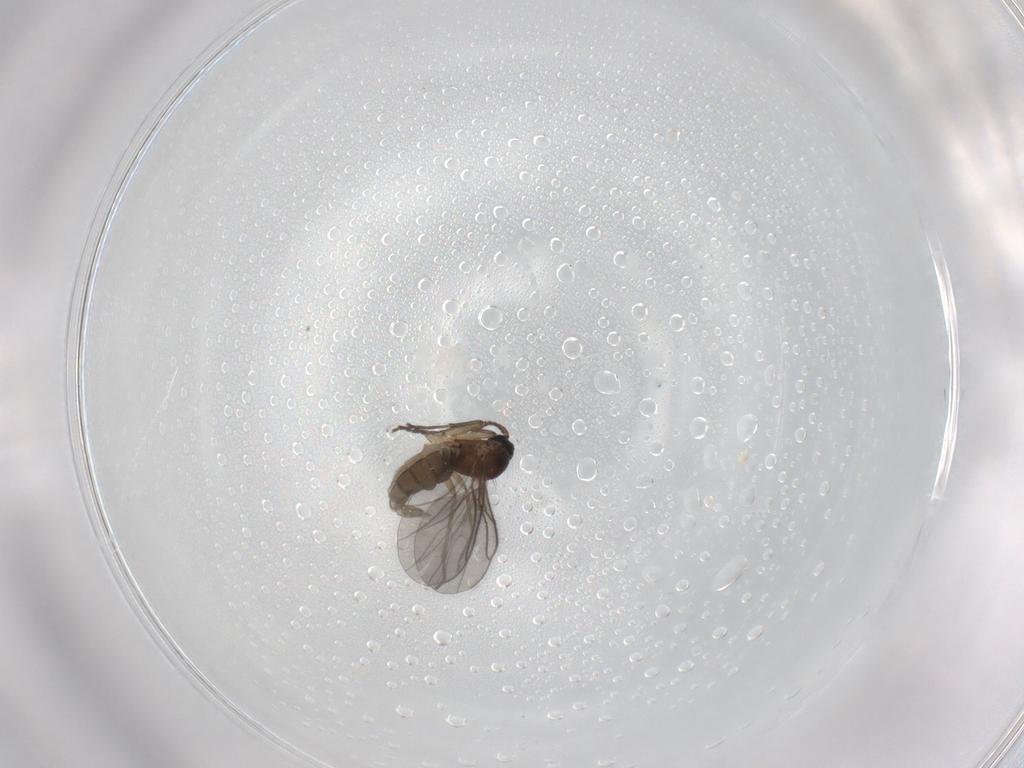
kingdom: Animalia
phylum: Arthropoda
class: Insecta
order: Diptera
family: Sciaridae
